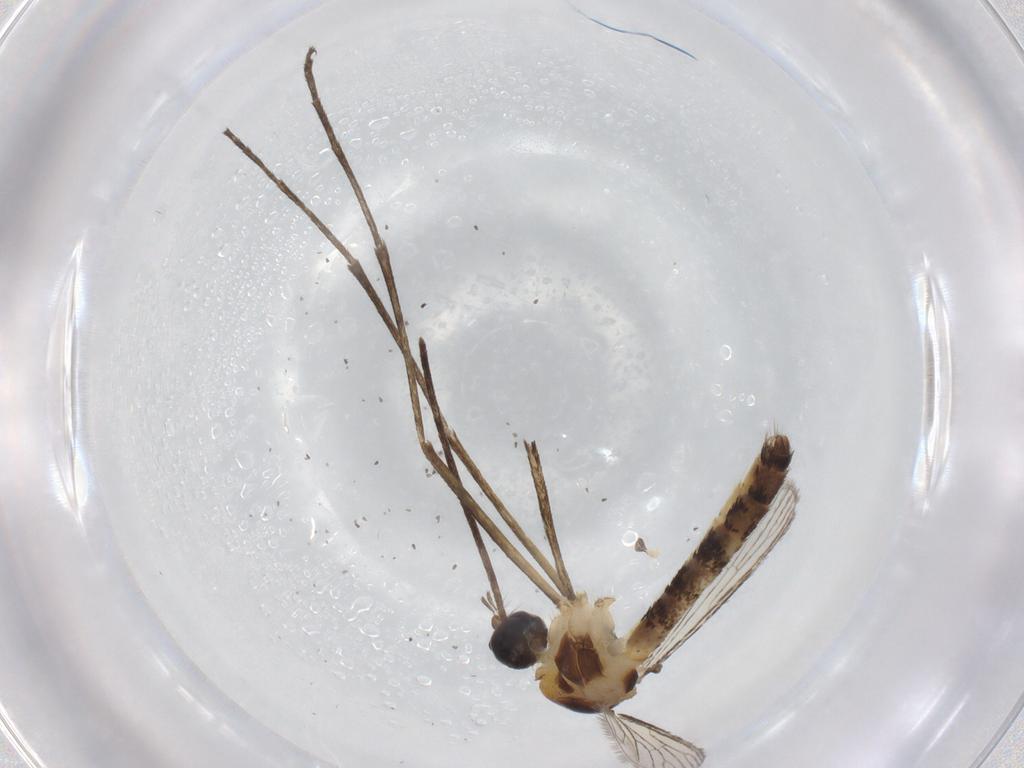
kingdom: Animalia
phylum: Arthropoda
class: Insecta
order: Diptera
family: Phoridae
